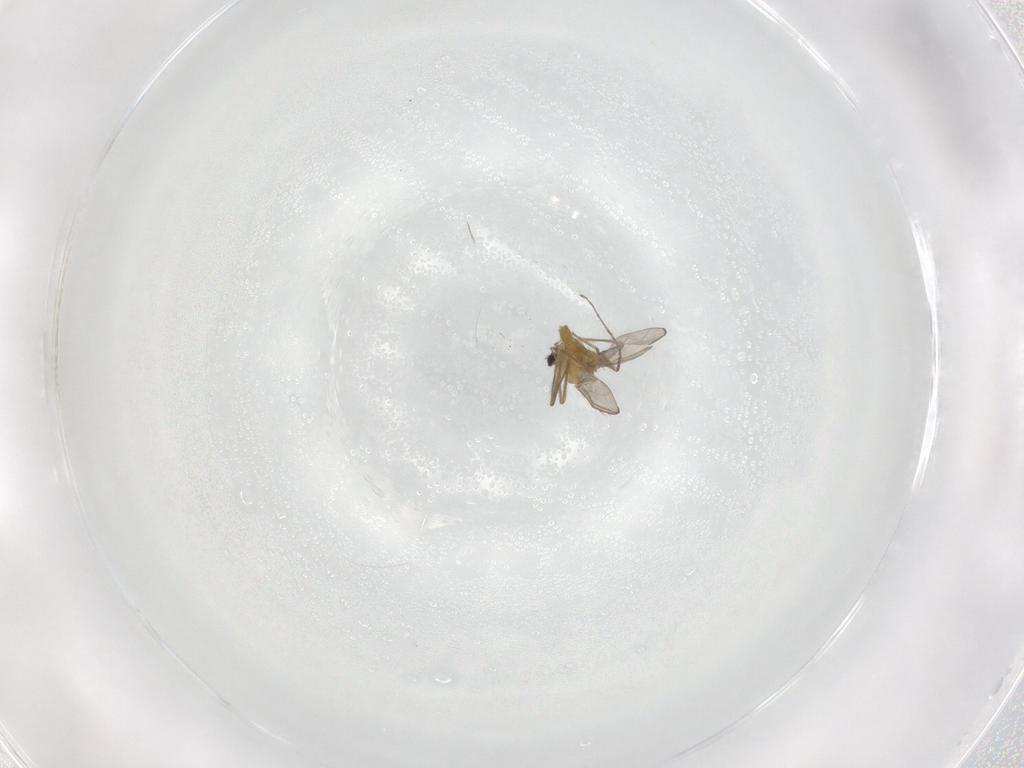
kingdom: Animalia
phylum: Arthropoda
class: Insecta
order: Diptera
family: Chironomidae
